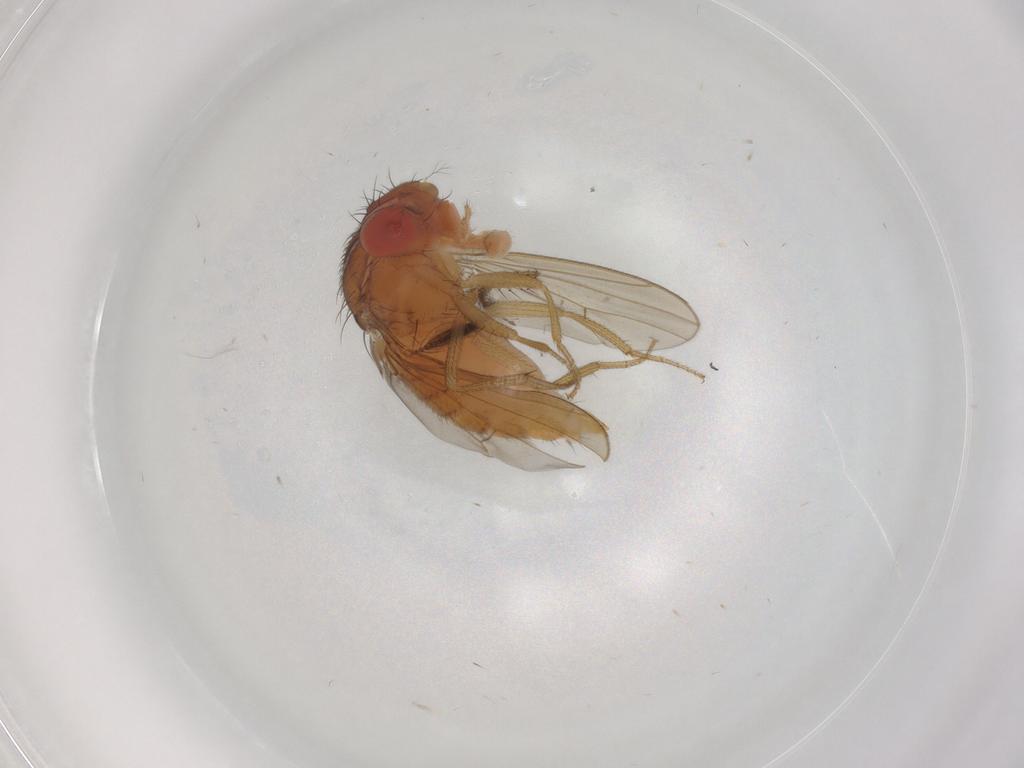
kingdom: Animalia
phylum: Arthropoda
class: Insecta
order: Diptera
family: Drosophilidae
